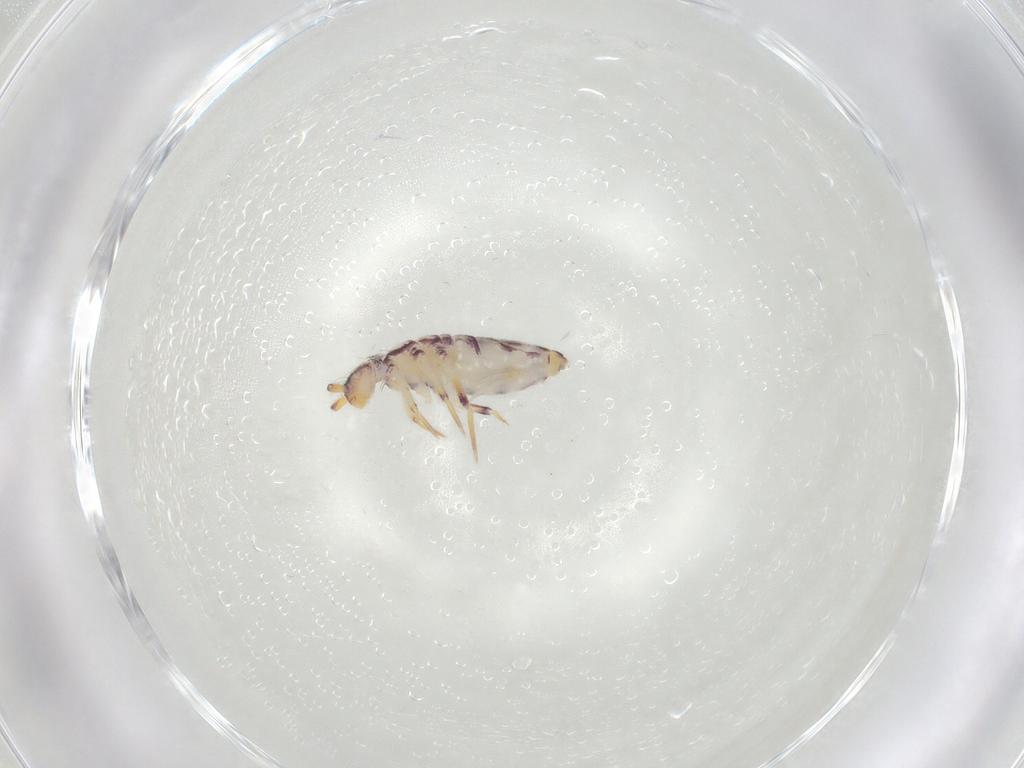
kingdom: Animalia
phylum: Arthropoda
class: Collembola
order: Entomobryomorpha
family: Entomobryidae
